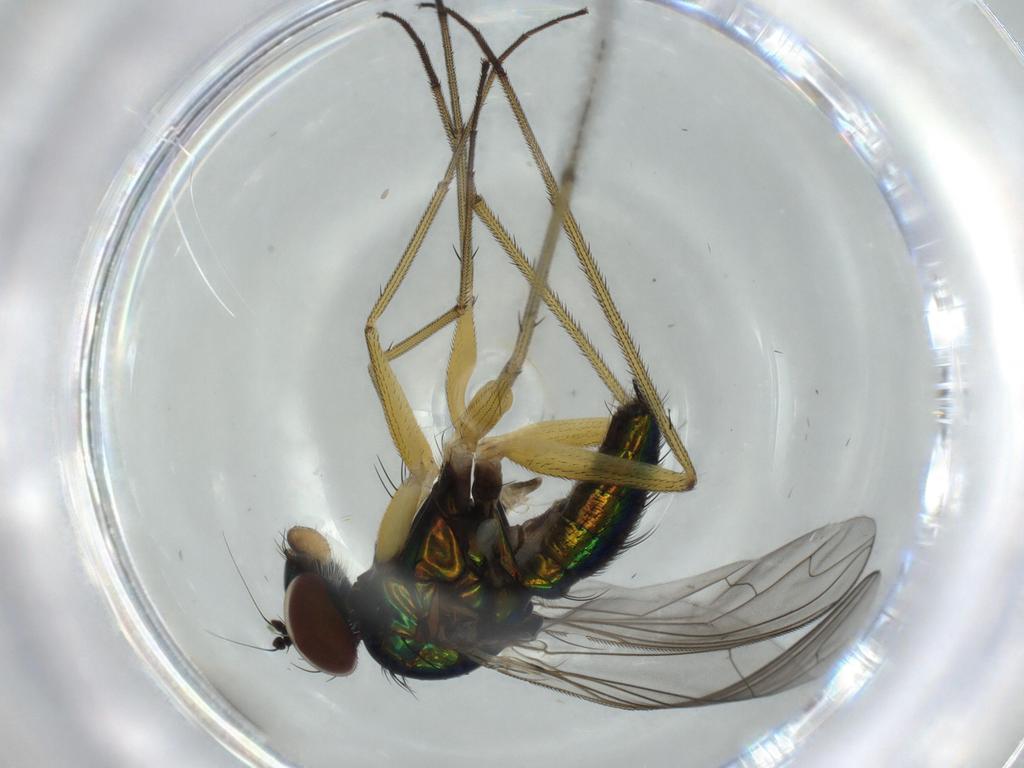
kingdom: Animalia
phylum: Arthropoda
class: Insecta
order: Diptera
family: Dolichopodidae
